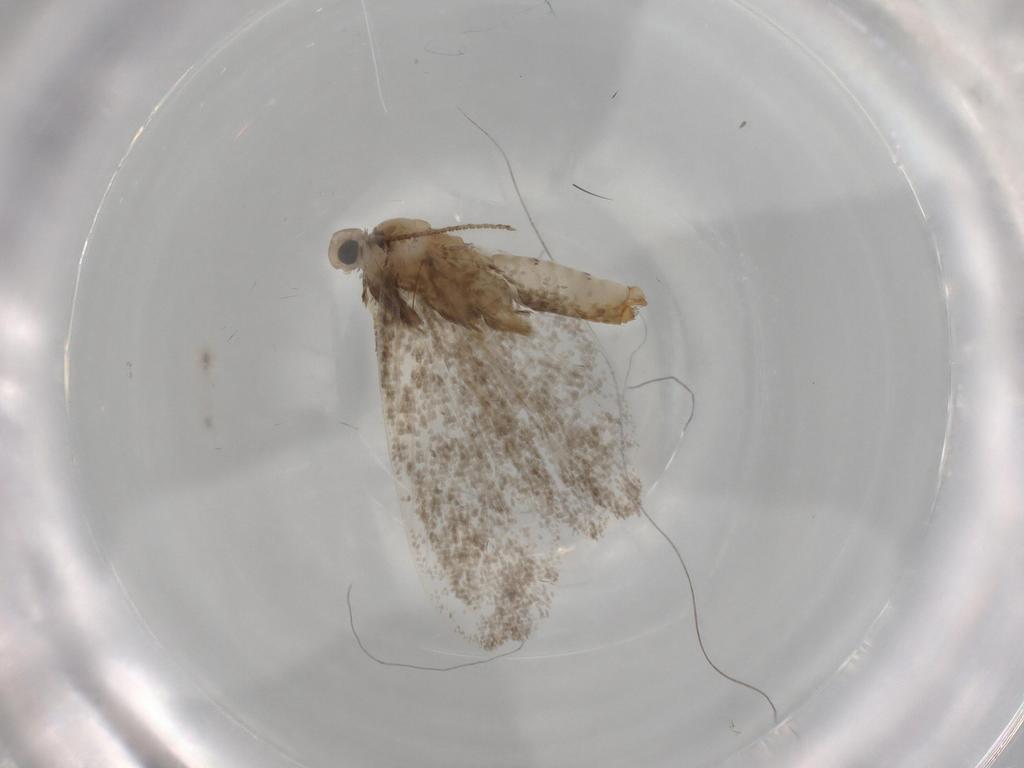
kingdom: Animalia
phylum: Arthropoda
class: Insecta
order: Lepidoptera
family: Psychidae
